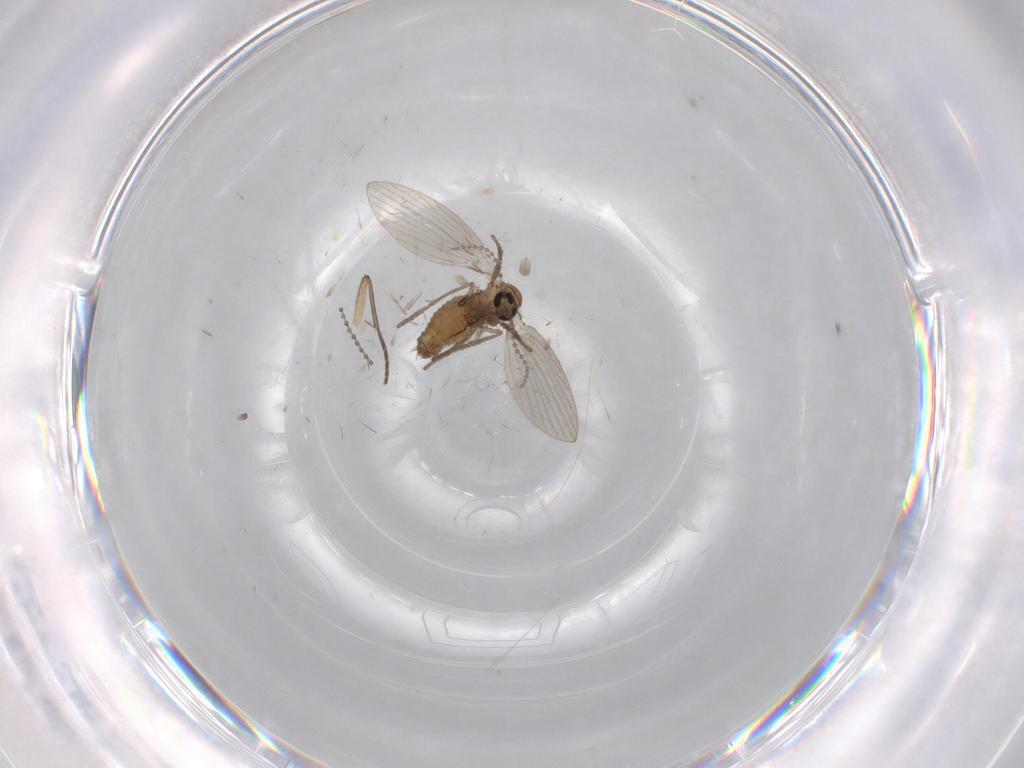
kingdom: Animalia
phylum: Arthropoda
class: Insecta
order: Diptera
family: Psychodidae
